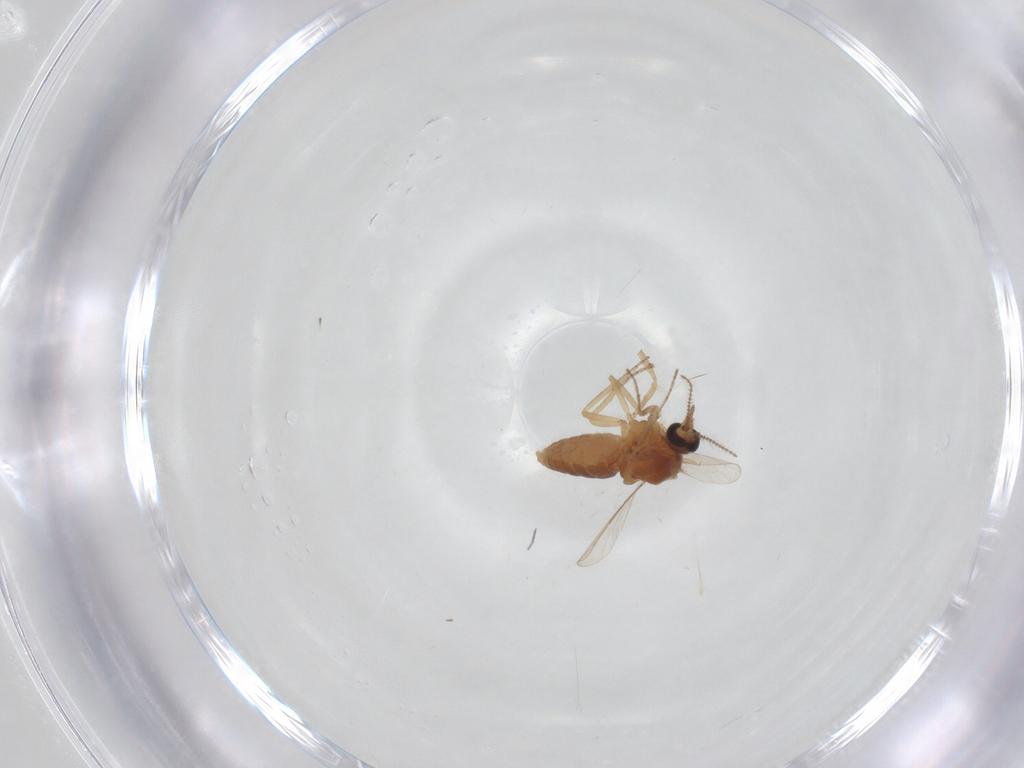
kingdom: Animalia
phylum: Arthropoda
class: Insecta
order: Diptera
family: Ceratopogonidae
